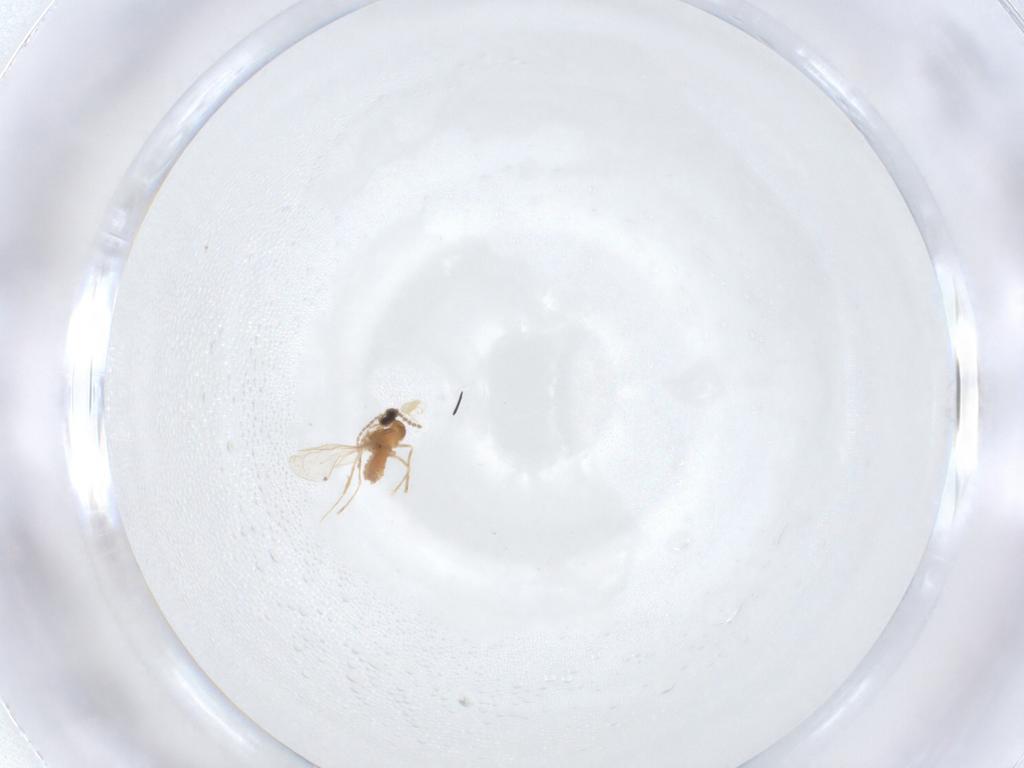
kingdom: Animalia
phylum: Arthropoda
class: Insecta
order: Diptera
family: Cecidomyiidae
